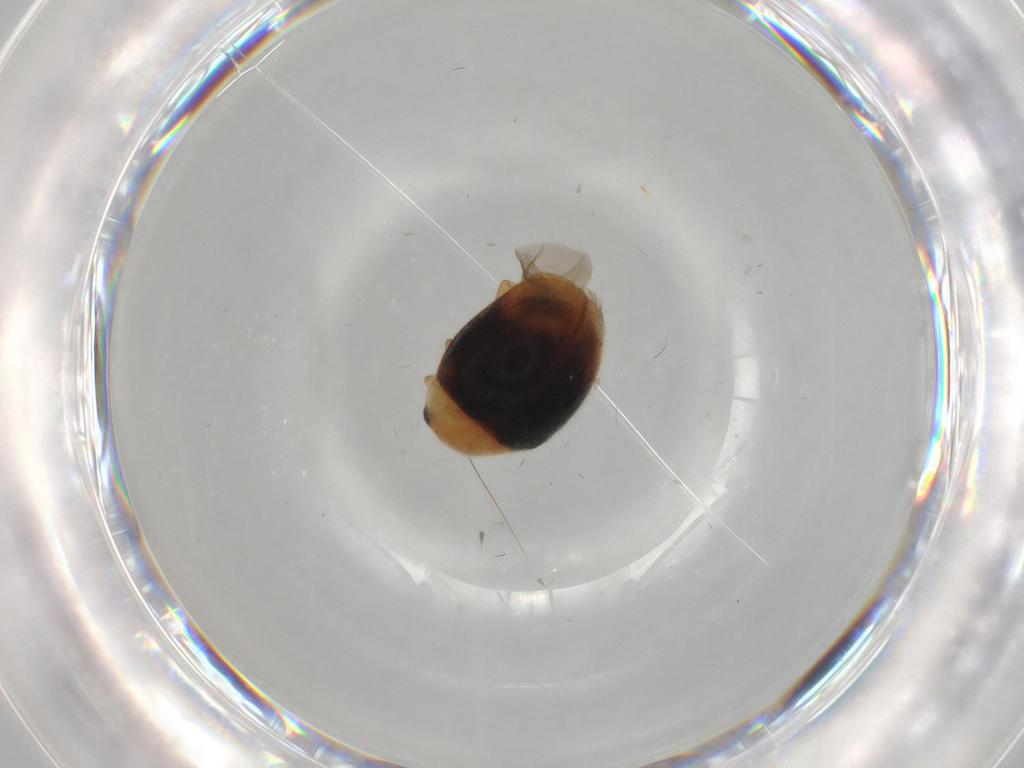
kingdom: Animalia
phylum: Arthropoda
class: Insecta
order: Coleoptera
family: Coccinellidae
